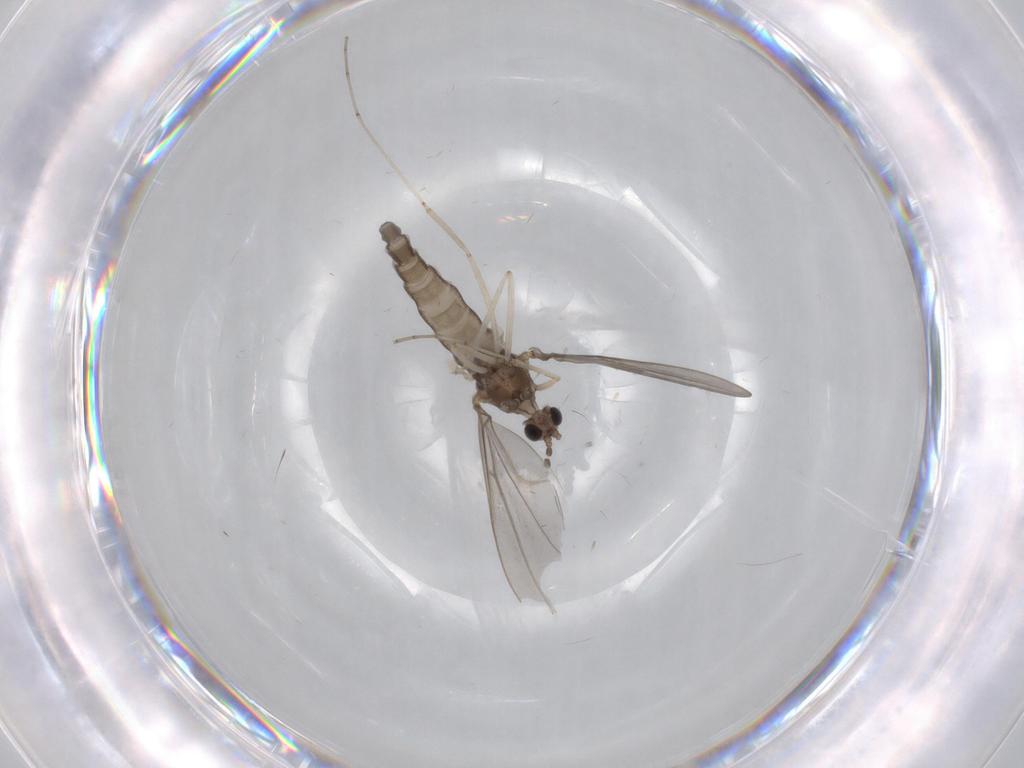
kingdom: Animalia
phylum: Arthropoda
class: Insecta
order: Diptera
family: Cecidomyiidae
